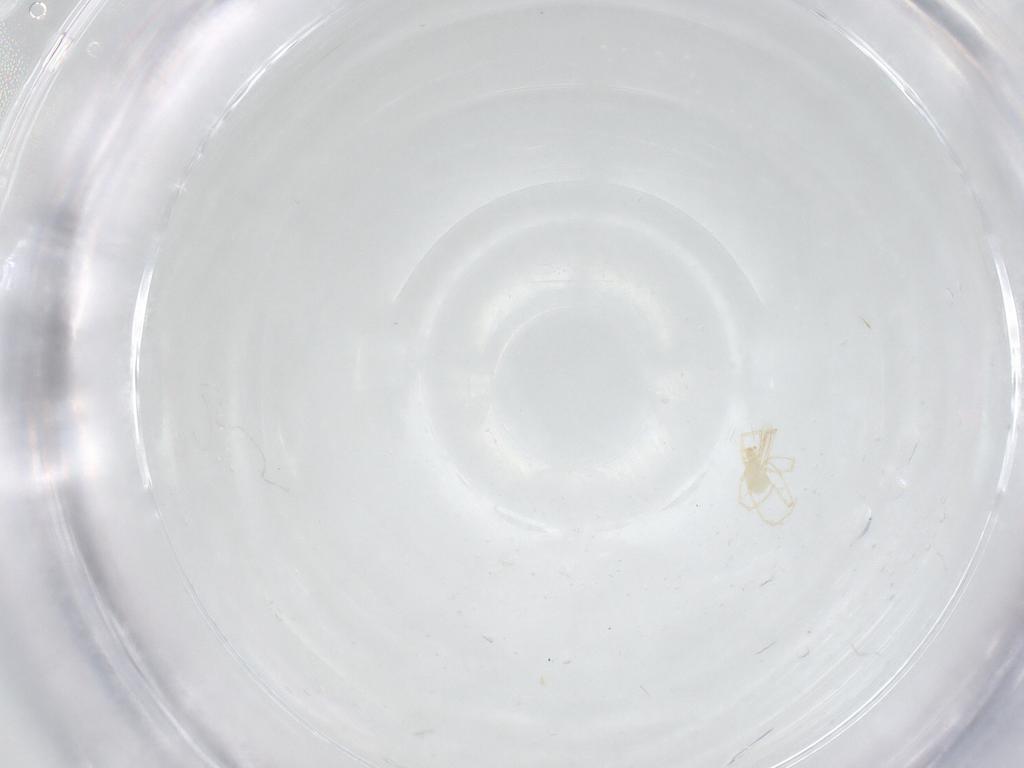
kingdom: Animalia
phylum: Arthropoda
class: Arachnida
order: Trombidiformes
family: Erythraeidae
